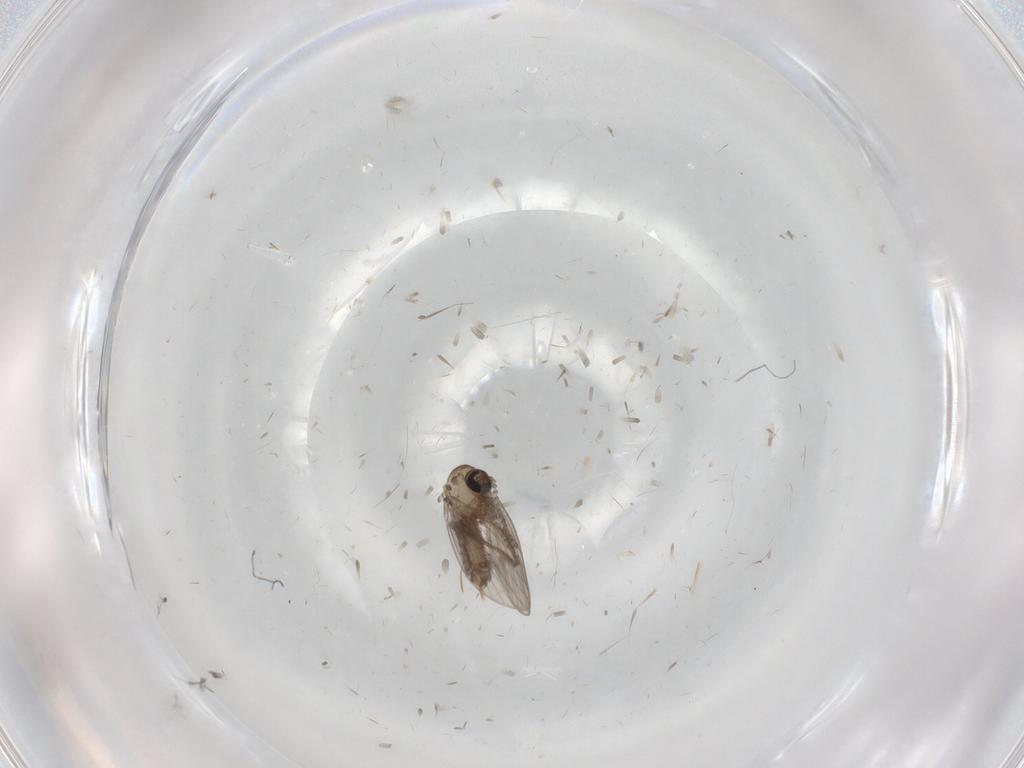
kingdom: Animalia
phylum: Arthropoda
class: Insecta
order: Diptera
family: Psychodidae
